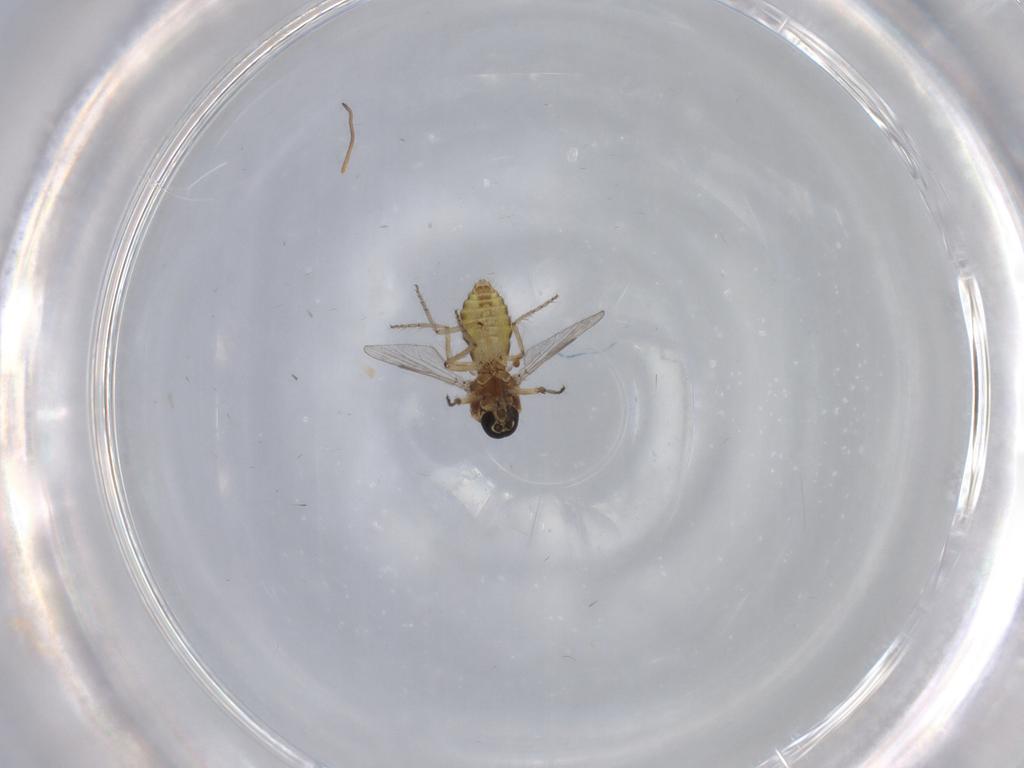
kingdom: Animalia
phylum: Arthropoda
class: Insecta
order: Diptera
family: Ceratopogonidae
